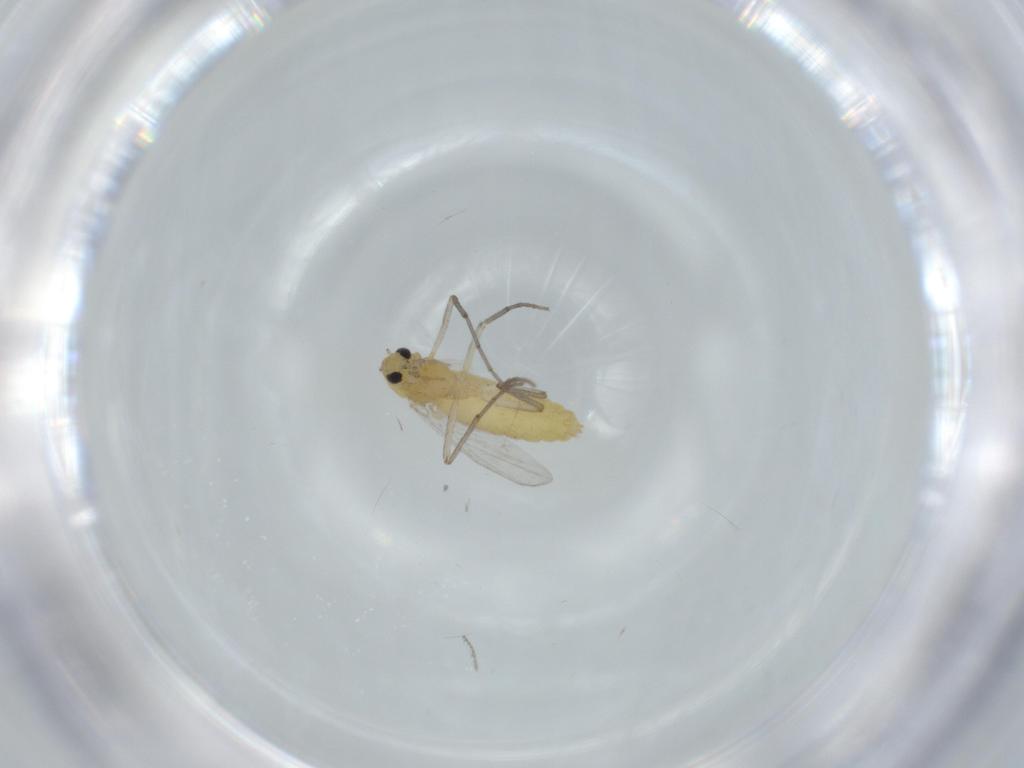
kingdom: Animalia
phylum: Arthropoda
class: Insecta
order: Diptera
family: Chironomidae
